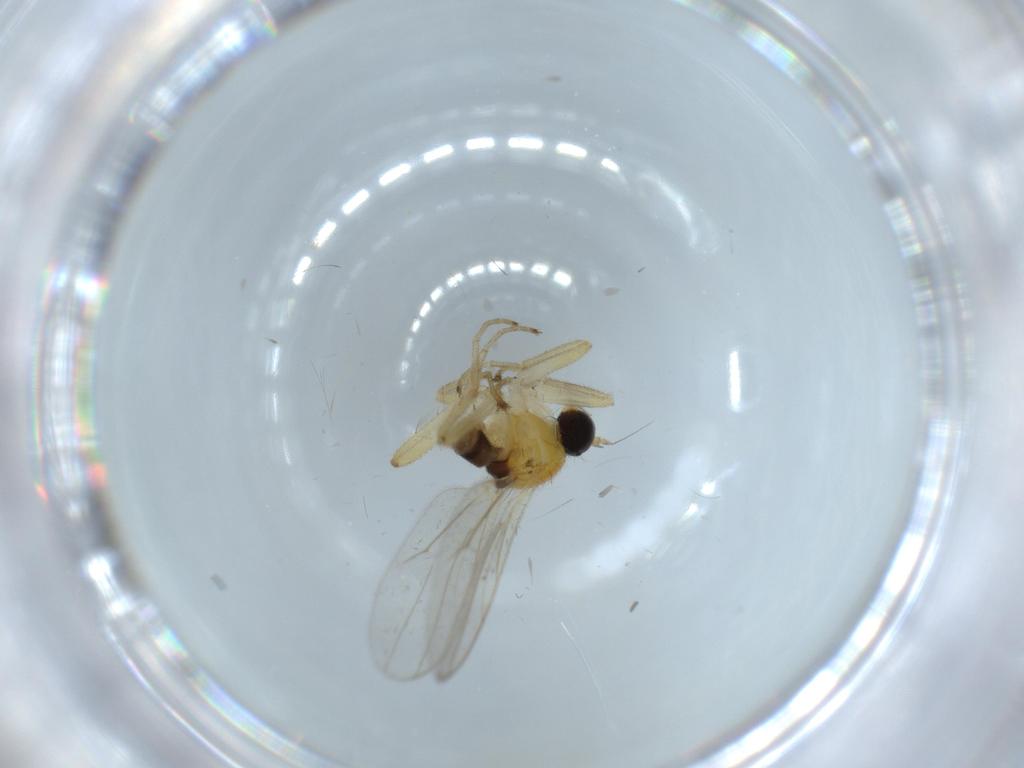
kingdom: Animalia
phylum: Arthropoda
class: Insecta
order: Diptera
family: Hybotidae
